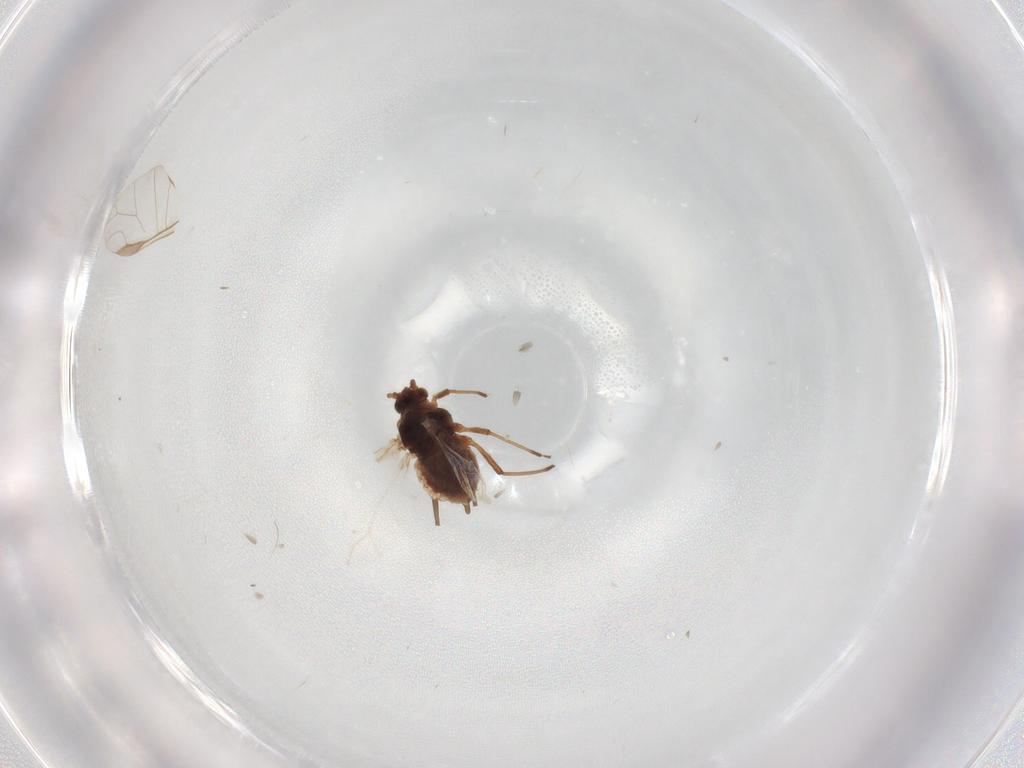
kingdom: Animalia
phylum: Arthropoda
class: Insecta
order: Hemiptera
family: Aphididae
